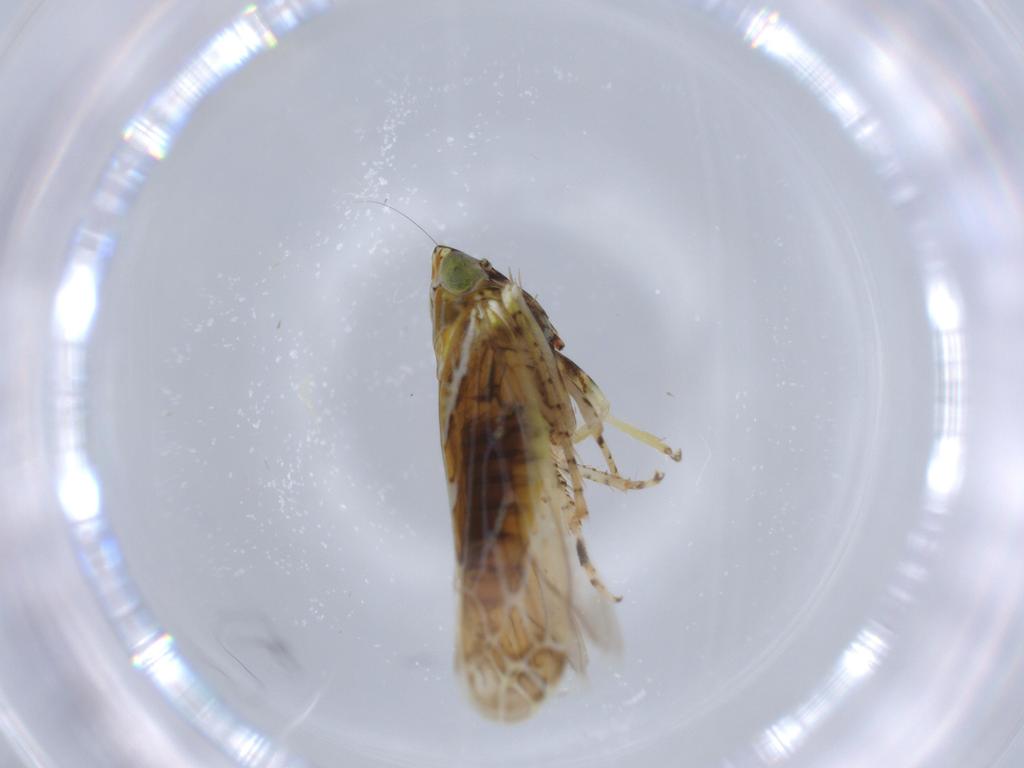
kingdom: Animalia
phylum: Arthropoda
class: Insecta
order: Hemiptera
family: Cicadellidae
